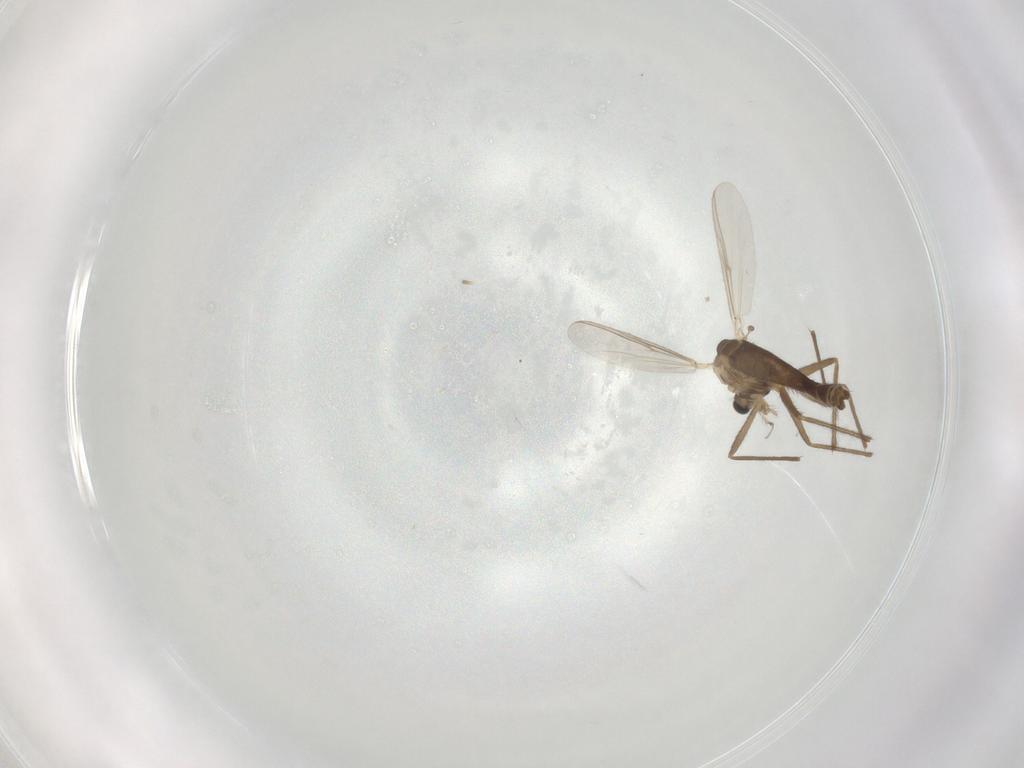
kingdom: Animalia
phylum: Arthropoda
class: Insecta
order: Diptera
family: Chironomidae
